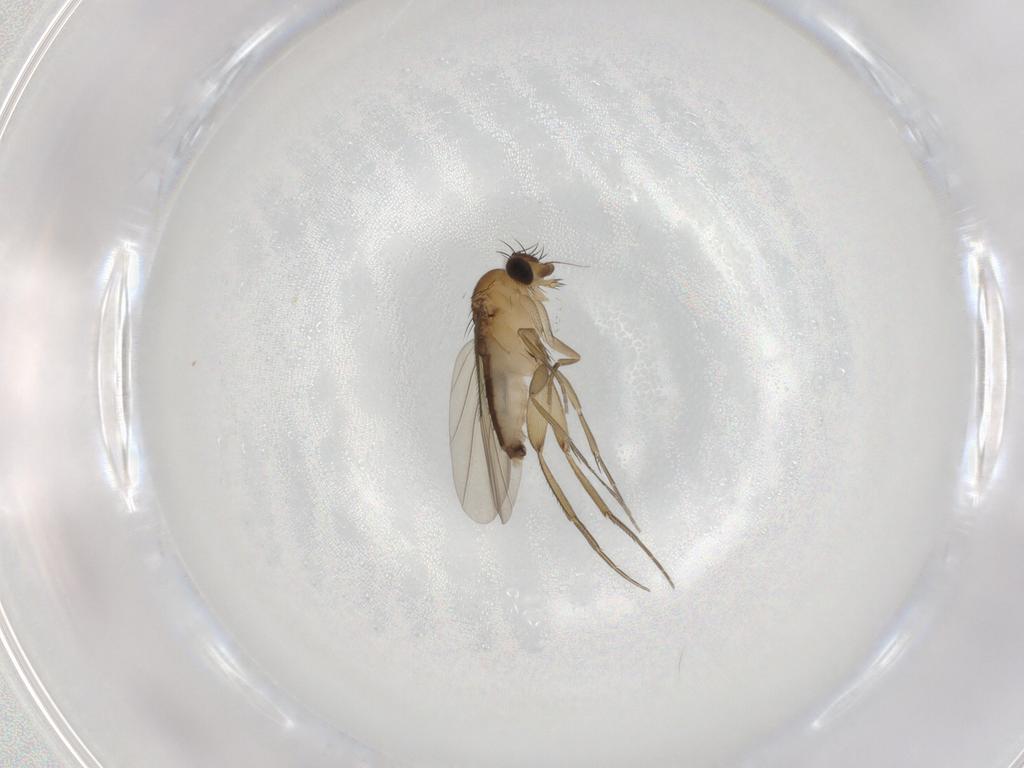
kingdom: Animalia
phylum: Arthropoda
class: Insecta
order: Diptera
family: Phoridae
